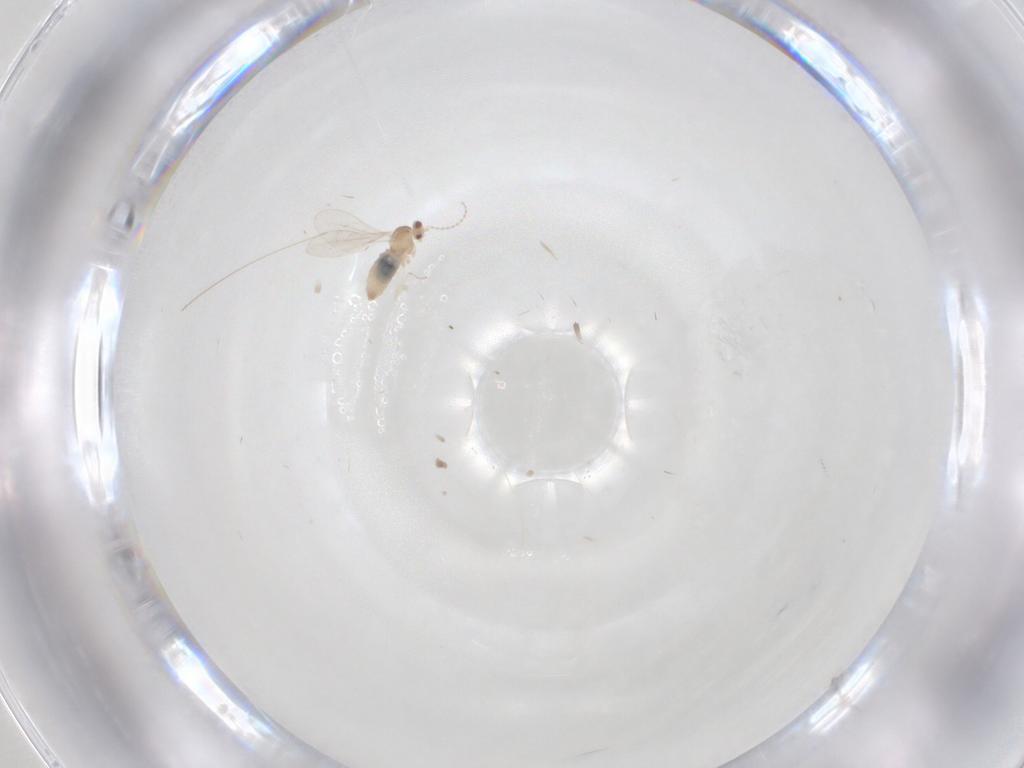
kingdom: Animalia
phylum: Arthropoda
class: Insecta
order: Diptera
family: Cecidomyiidae
